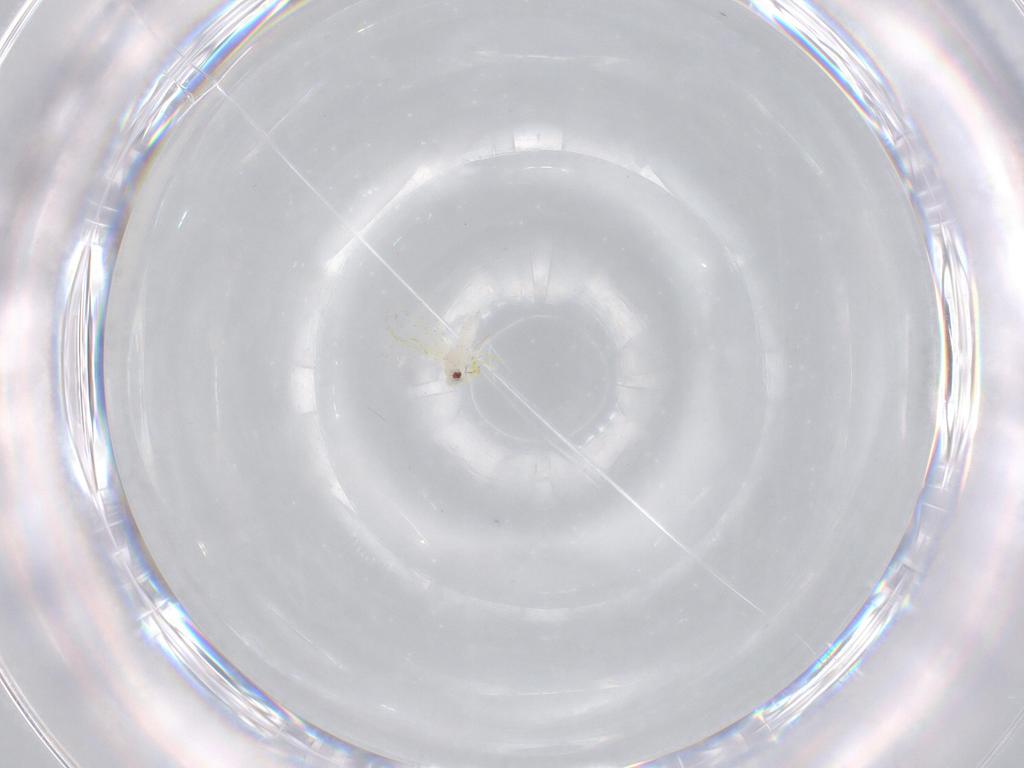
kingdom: Animalia
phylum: Arthropoda
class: Insecta
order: Hemiptera
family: Aleyrodidae
